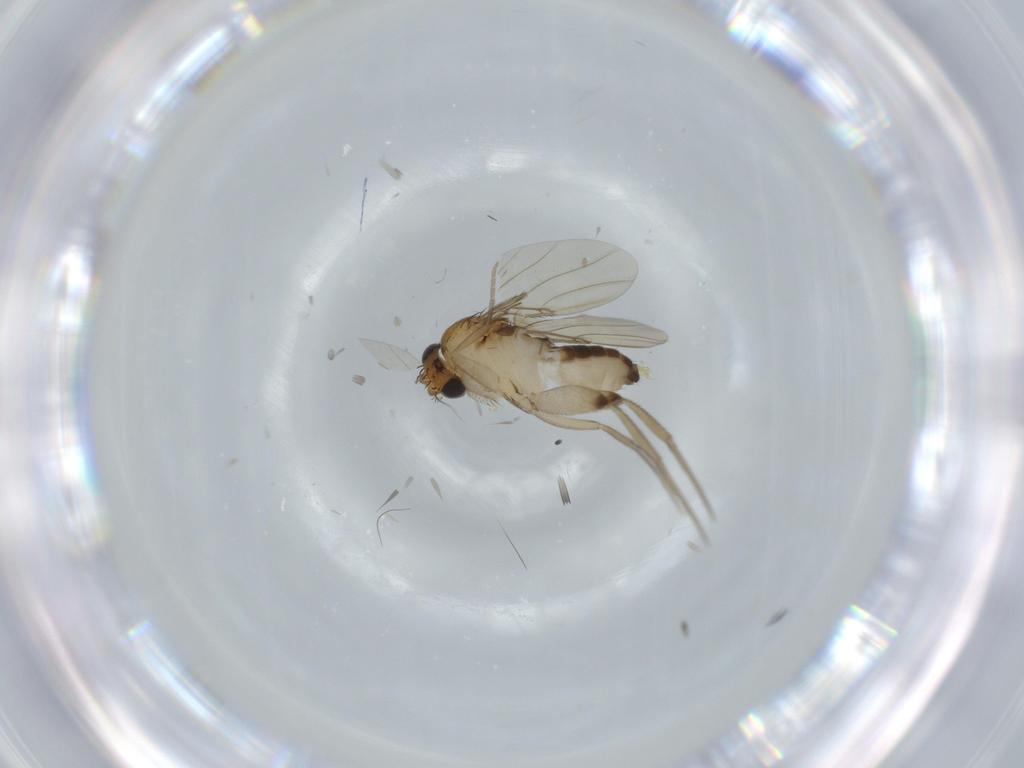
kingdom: Animalia
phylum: Arthropoda
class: Insecta
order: Diptera
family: Phoridae
